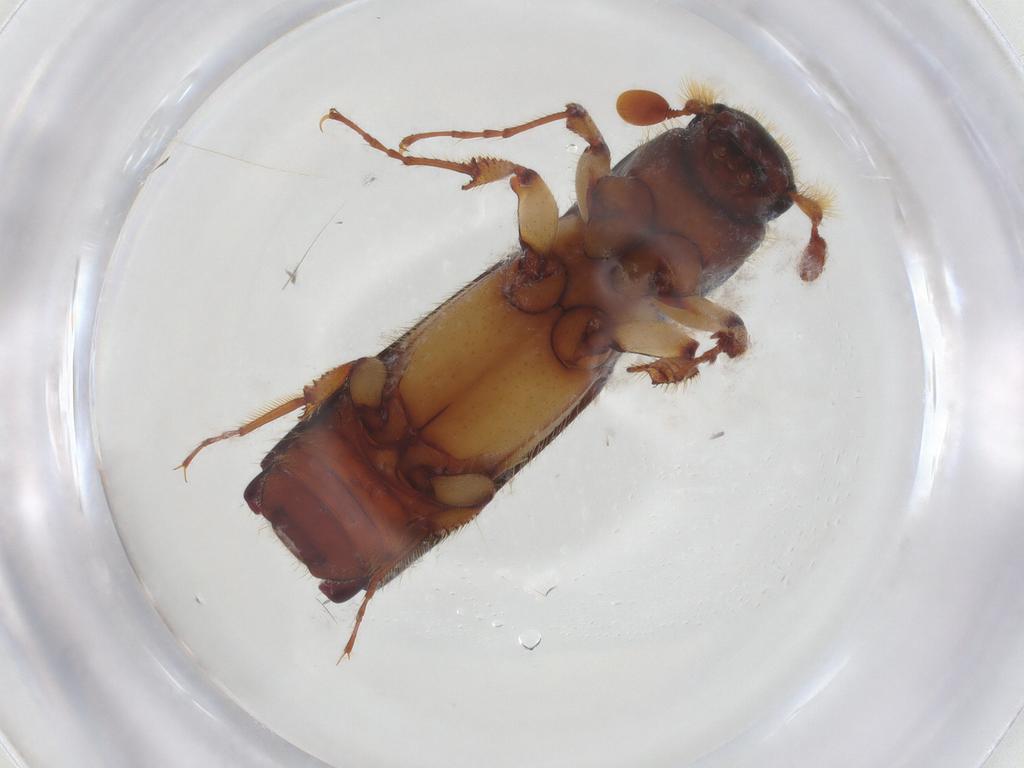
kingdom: Animalia
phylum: Arthropoda
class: Insecta
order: Coleoptera
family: Curculionidae
